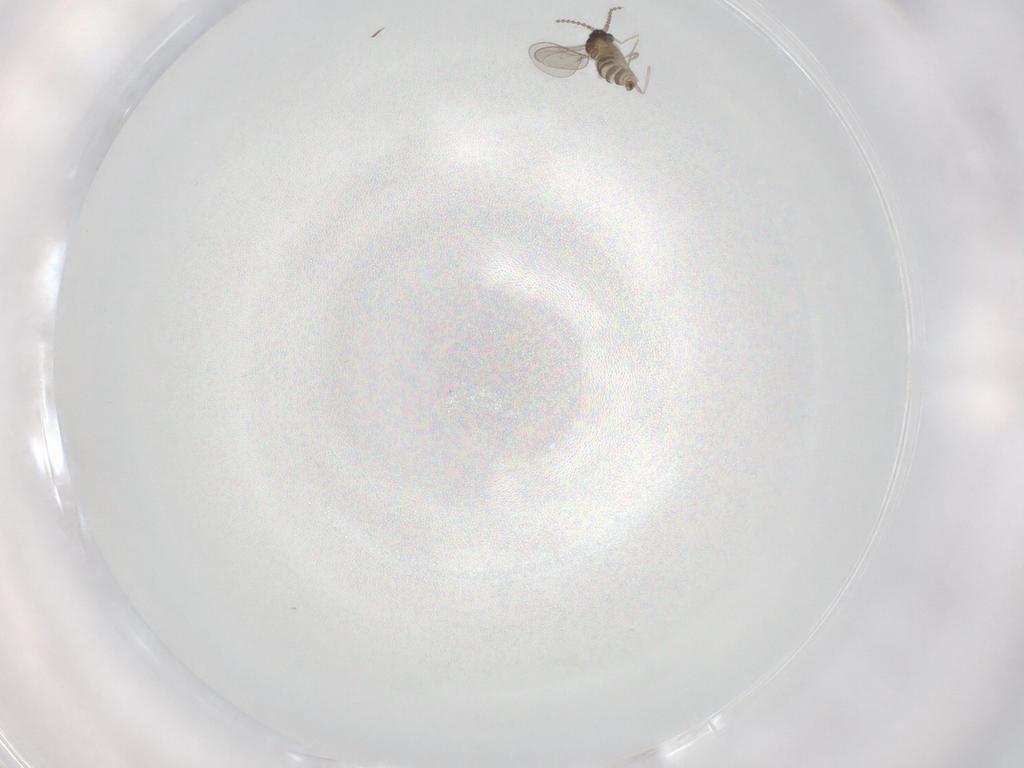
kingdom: Animalia
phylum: Arthropoda
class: Insecta
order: Diptera
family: Cecidomyiidae
